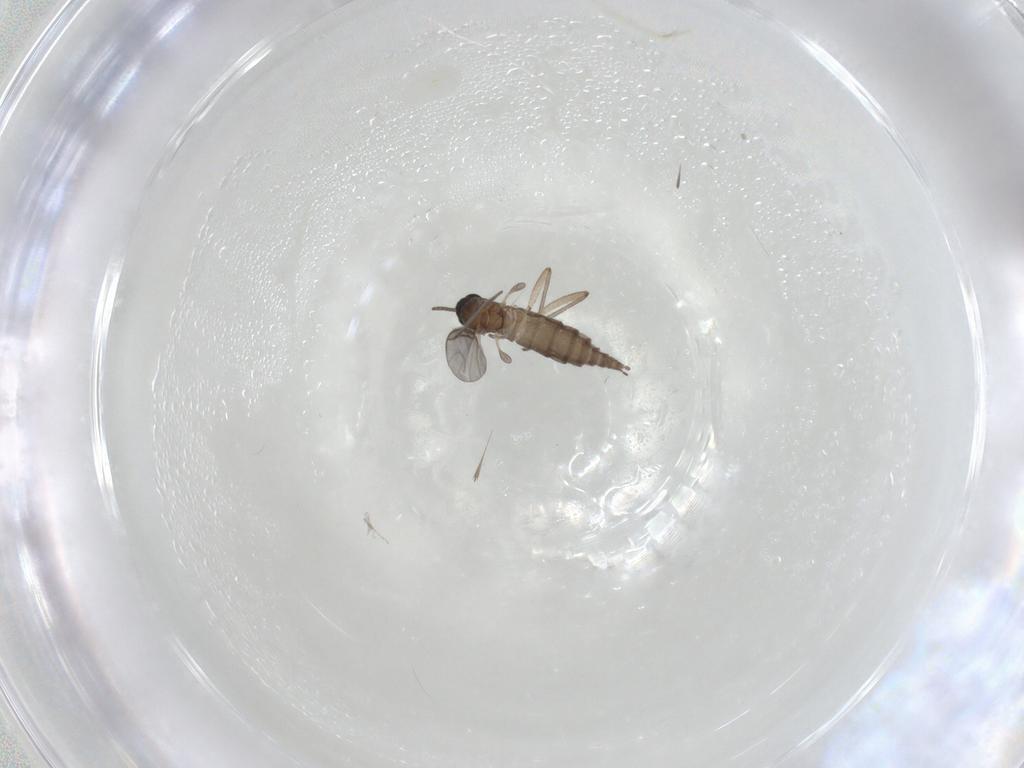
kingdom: Animalia
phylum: Arthropoda
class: Insecta
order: Diptera
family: Sciaridae
